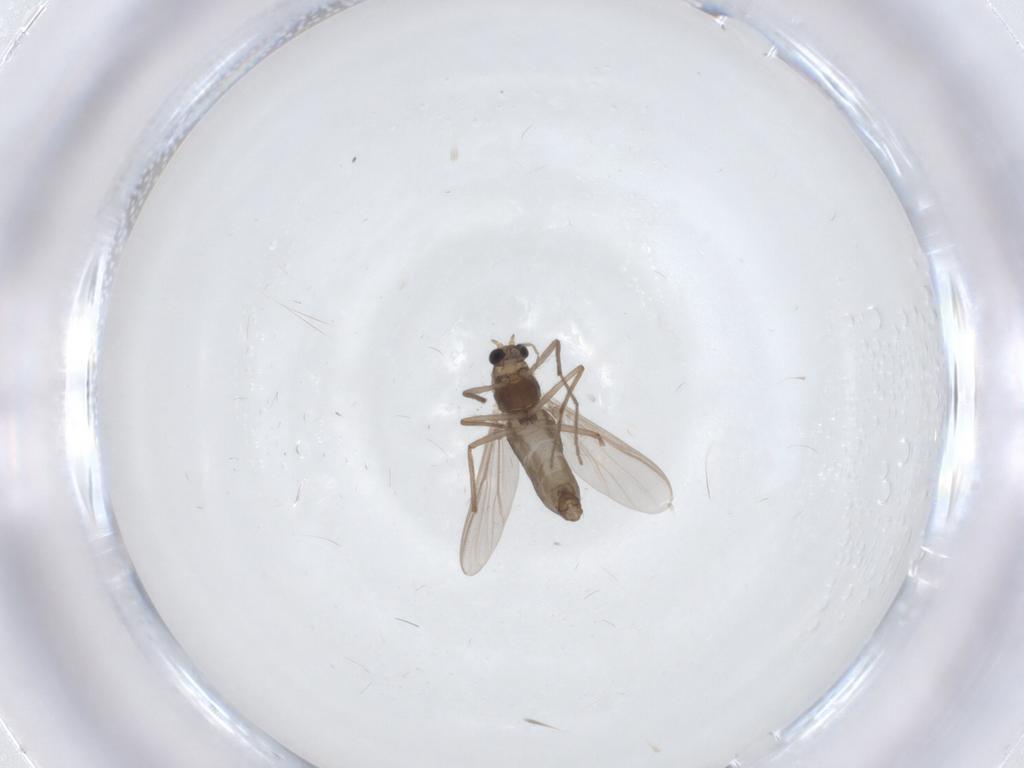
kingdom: Animalia
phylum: Arthropoda
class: Insecta
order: Diptera
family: Chironomidae
